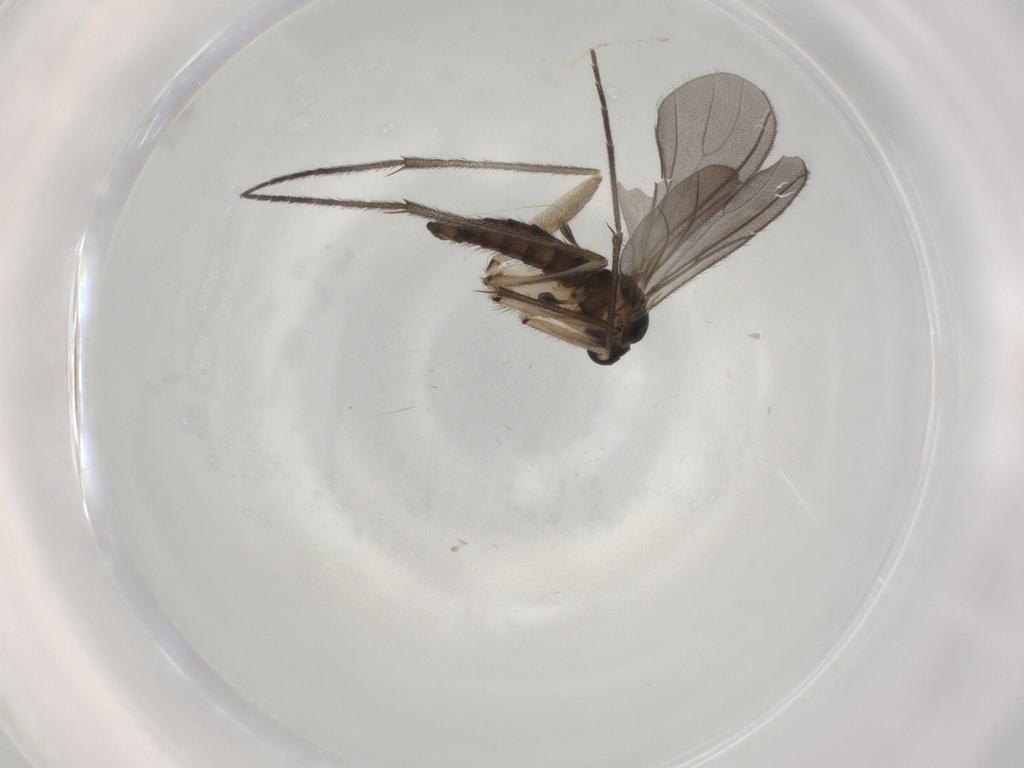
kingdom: Animalia
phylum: Arthropoda
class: Insecta
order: Diptera
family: Sciaridae
